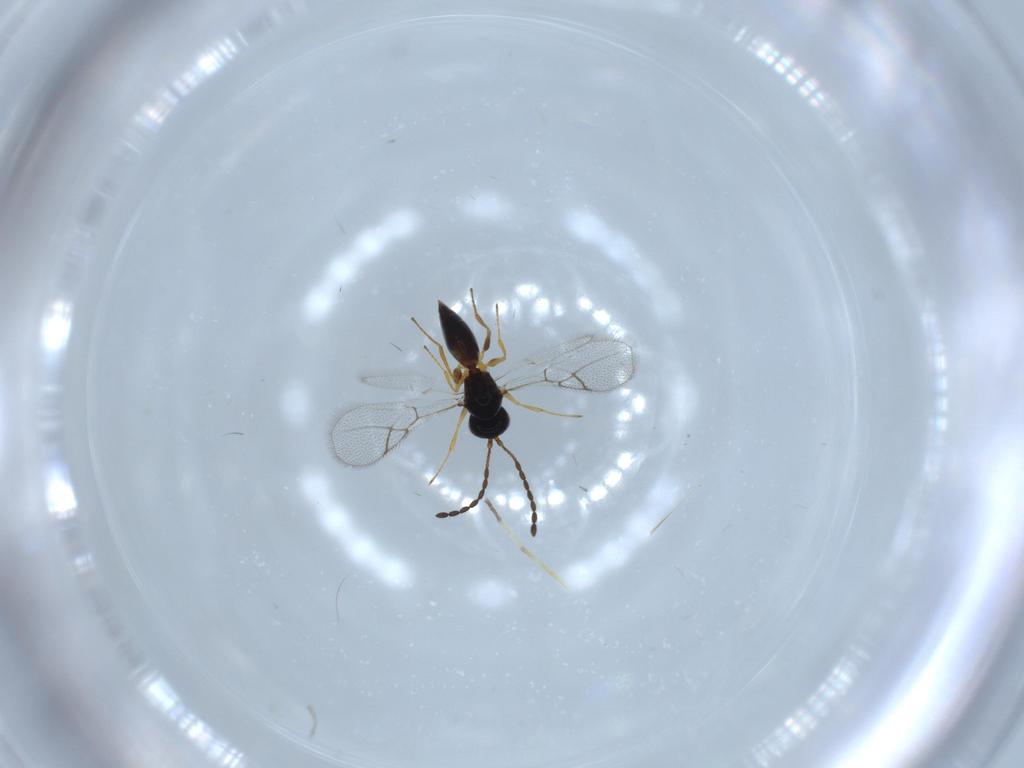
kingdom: Animalia
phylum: Arthropoda
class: Insecta
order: Hymenoptera
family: Figitidae
